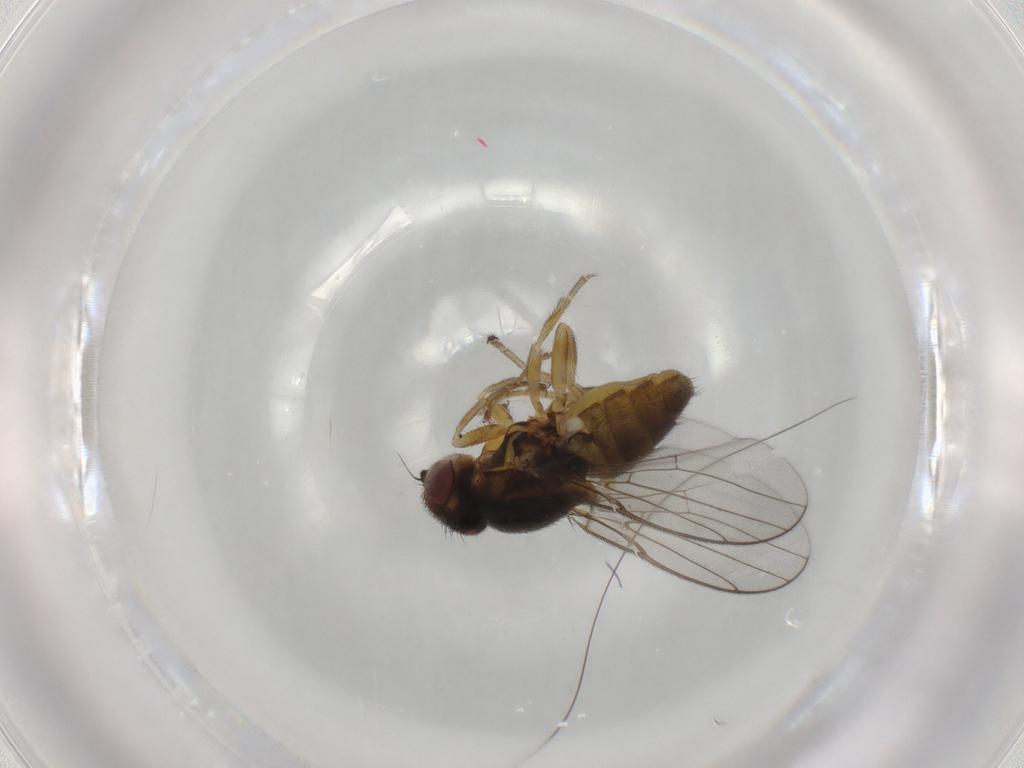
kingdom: Animalia
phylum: Arthropoda
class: Insecta
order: Diptera
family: Chloropidae
